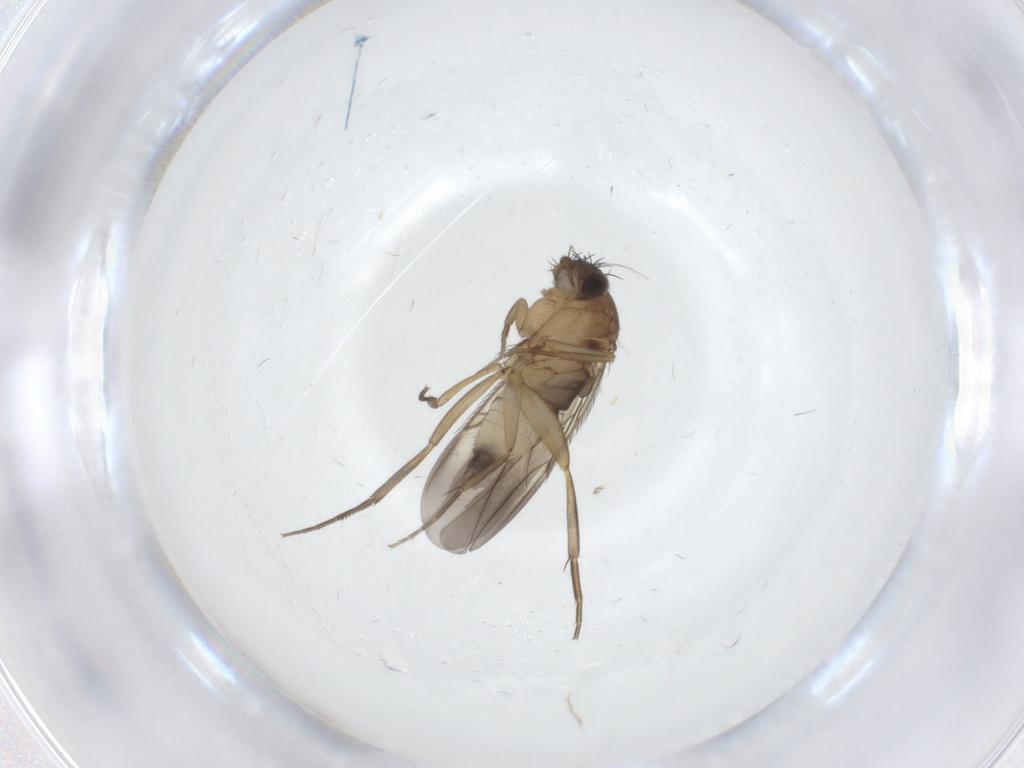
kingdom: Animalia
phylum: Arthropoda
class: Insecta
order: Diptera
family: Phoridae
